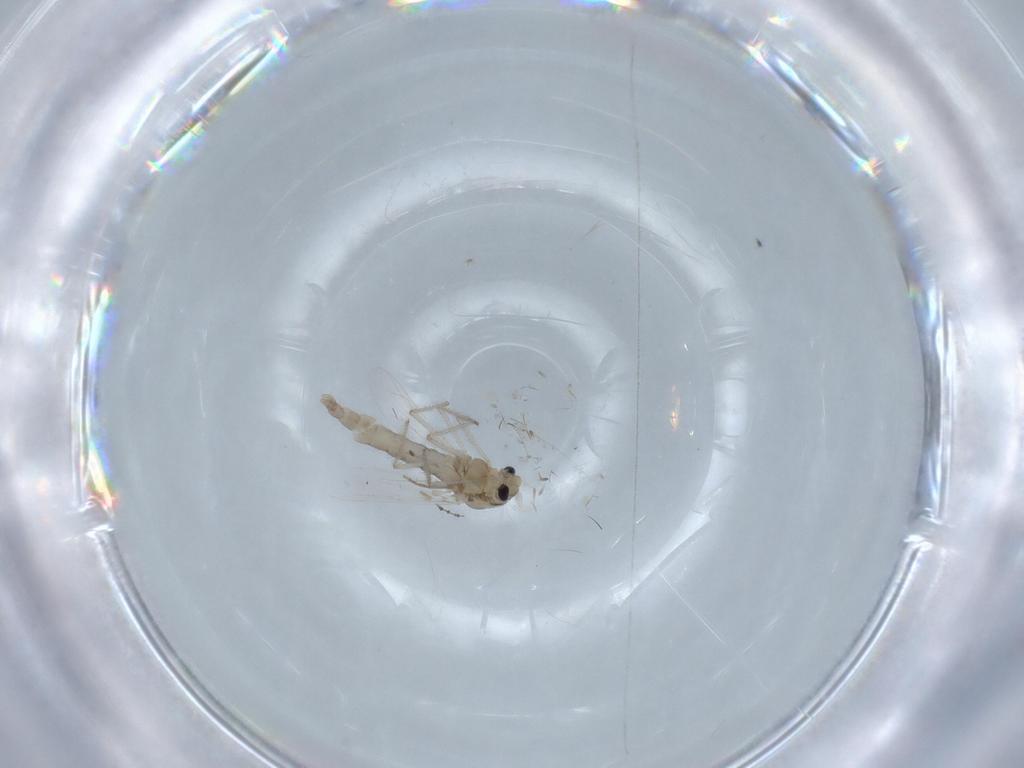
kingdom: Animalia
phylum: Arthropoda
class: Insecta
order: Diptera
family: Chironomidae
